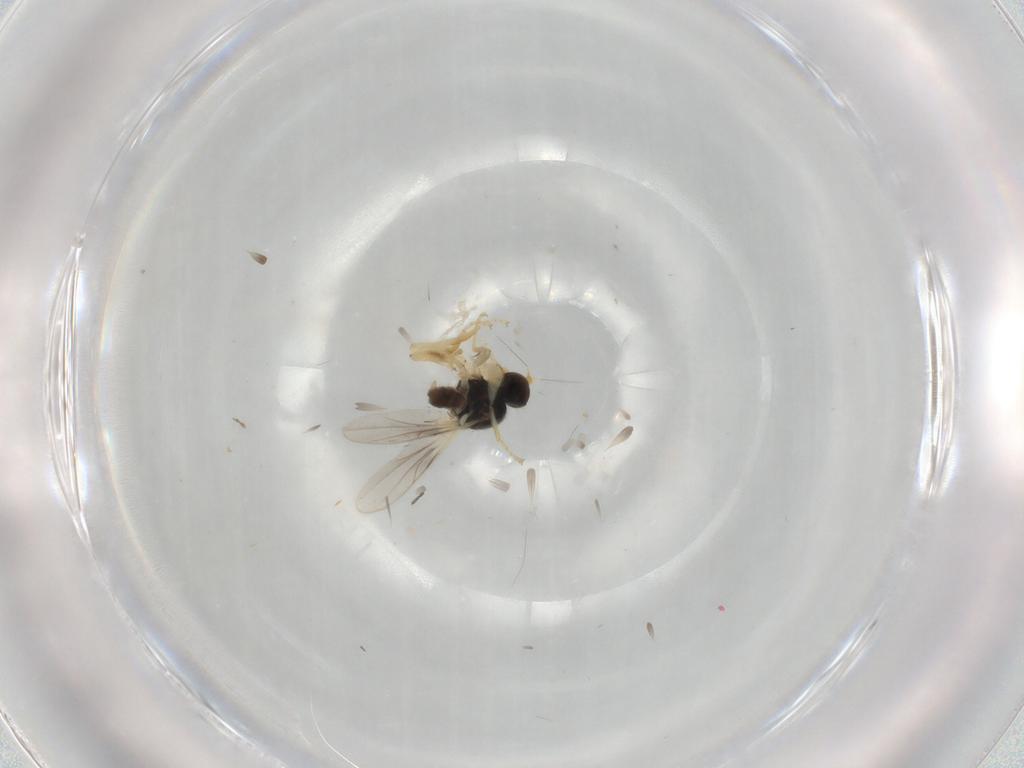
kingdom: Animalia
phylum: Arthropoda
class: Insecta
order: Diptera
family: Hybotidae
